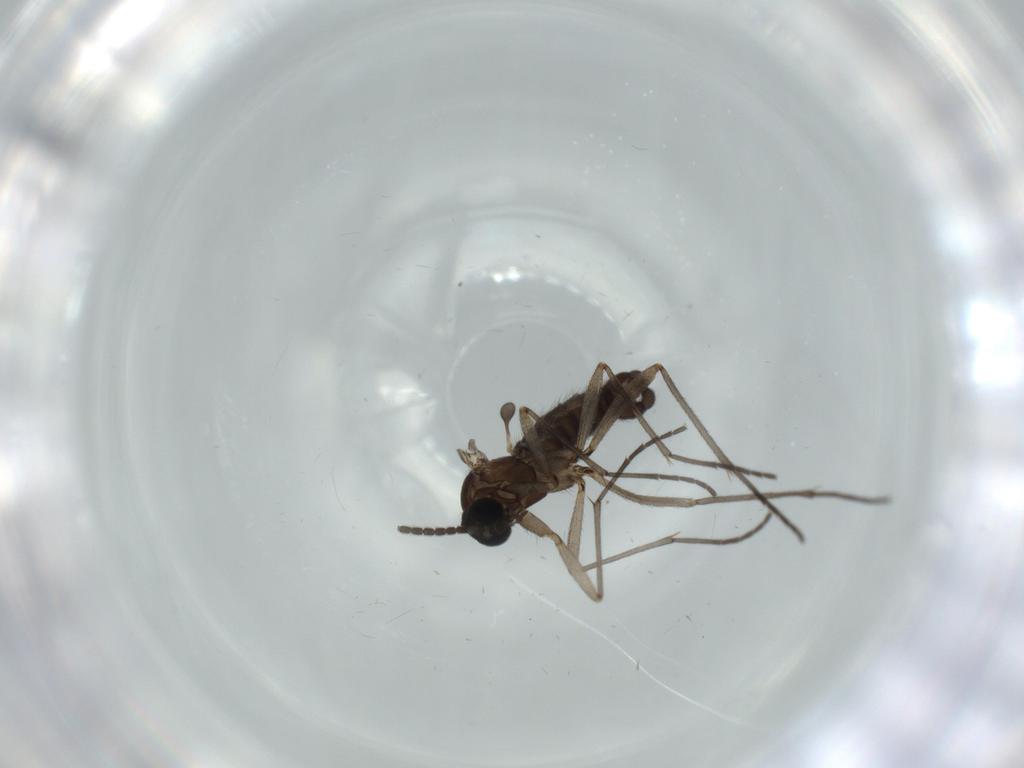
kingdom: Animalia
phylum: Arthropoda
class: Insecta
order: Diptera
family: Sciaridae
